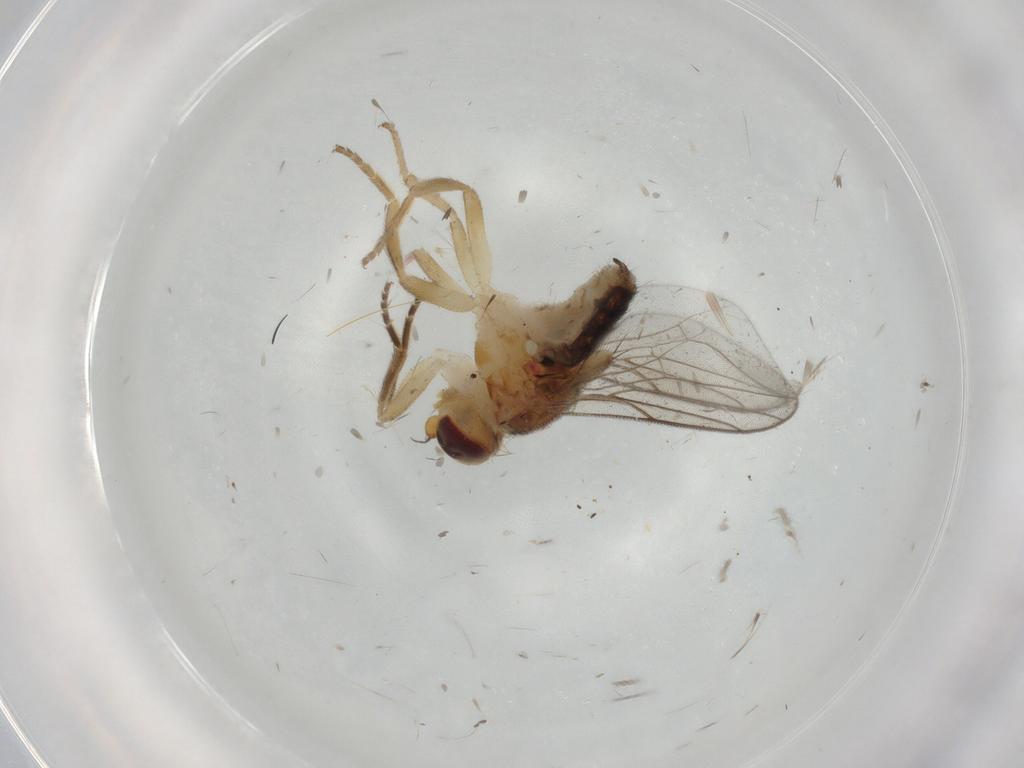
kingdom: Animalia
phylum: Arthropoda
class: Insecta
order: Diptera
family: Chloropidae
